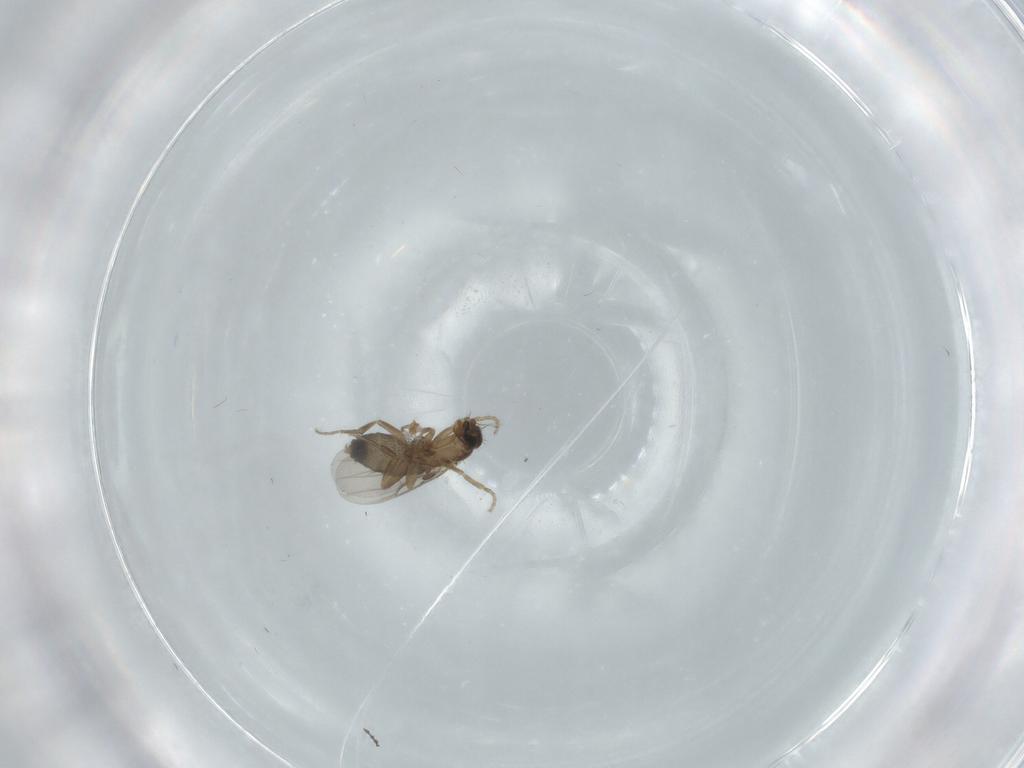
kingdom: Animalia
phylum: Arthropoda
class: Insecta
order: Diptera
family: Phoridae
